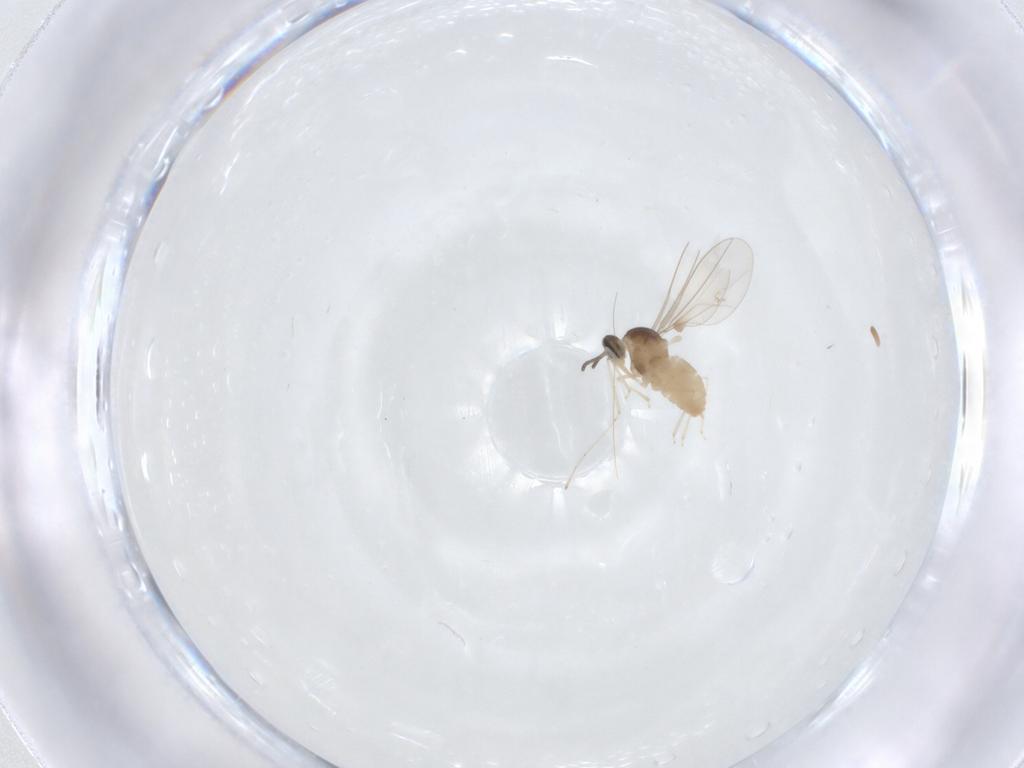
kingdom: Animalia
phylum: Arthropoda
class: Insecta
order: Diptera
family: Cecidomyiidae
